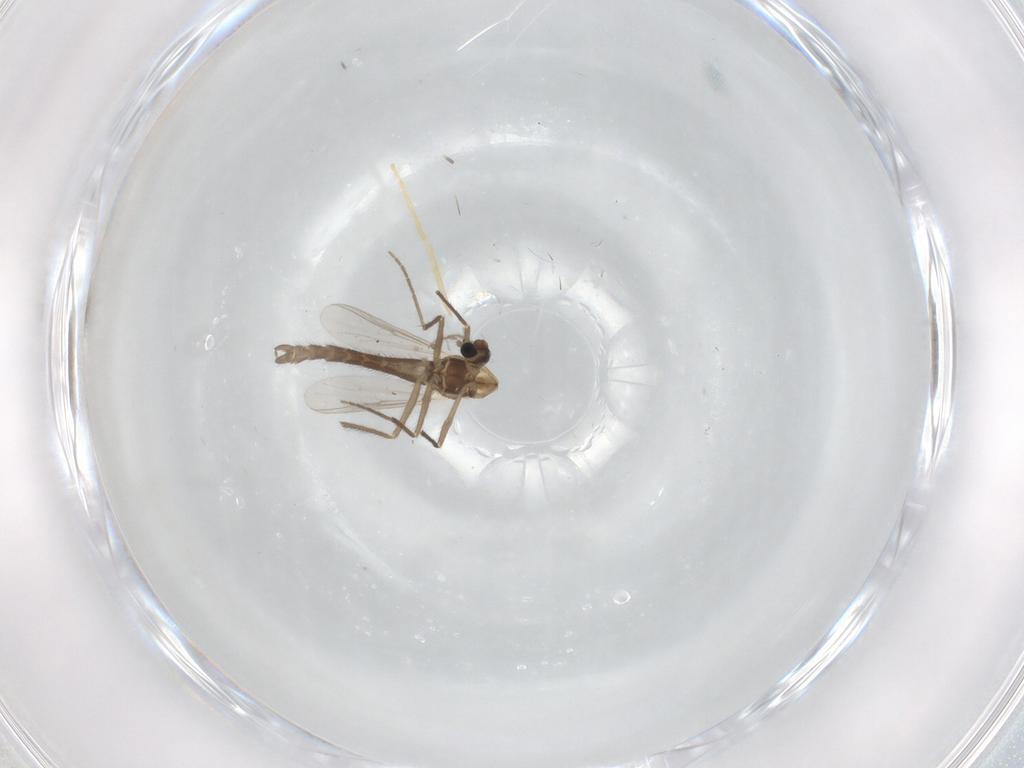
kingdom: Animalia
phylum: Arthropoda
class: Insecta
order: Diptera
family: Chironomidae
